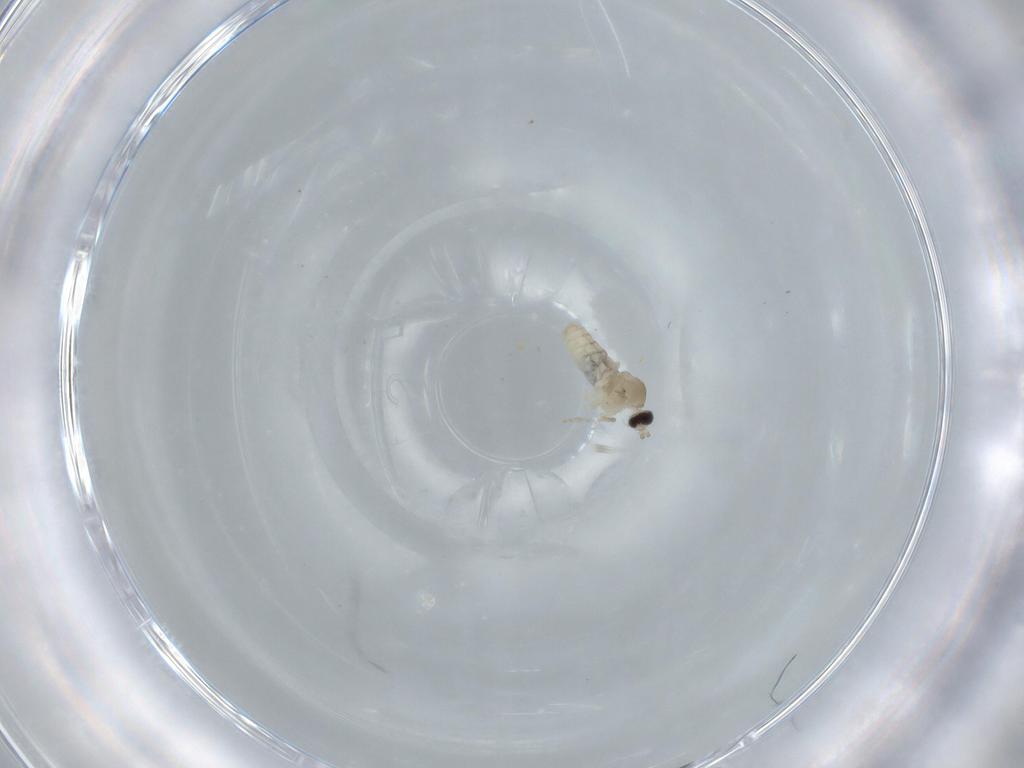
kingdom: Animalia
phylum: Arthropoda
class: Insecta
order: Diptera
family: Cecidomyiidae
